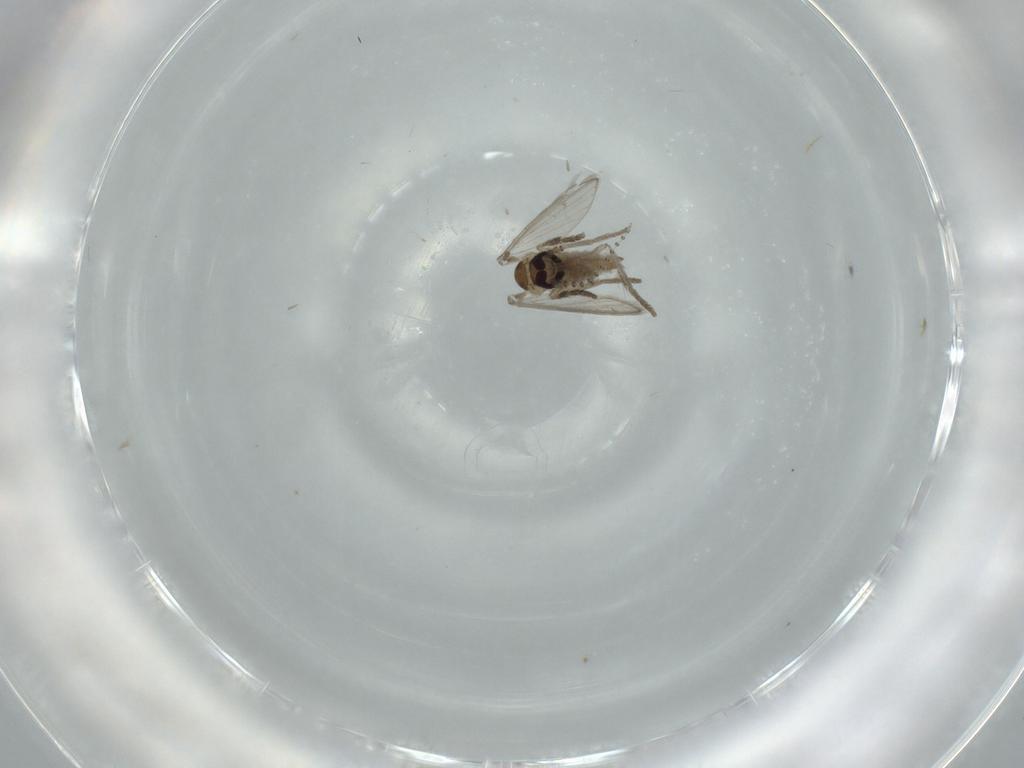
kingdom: Animalia
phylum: Arthropoda
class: Insecta
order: Diptera
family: Psychodidae
